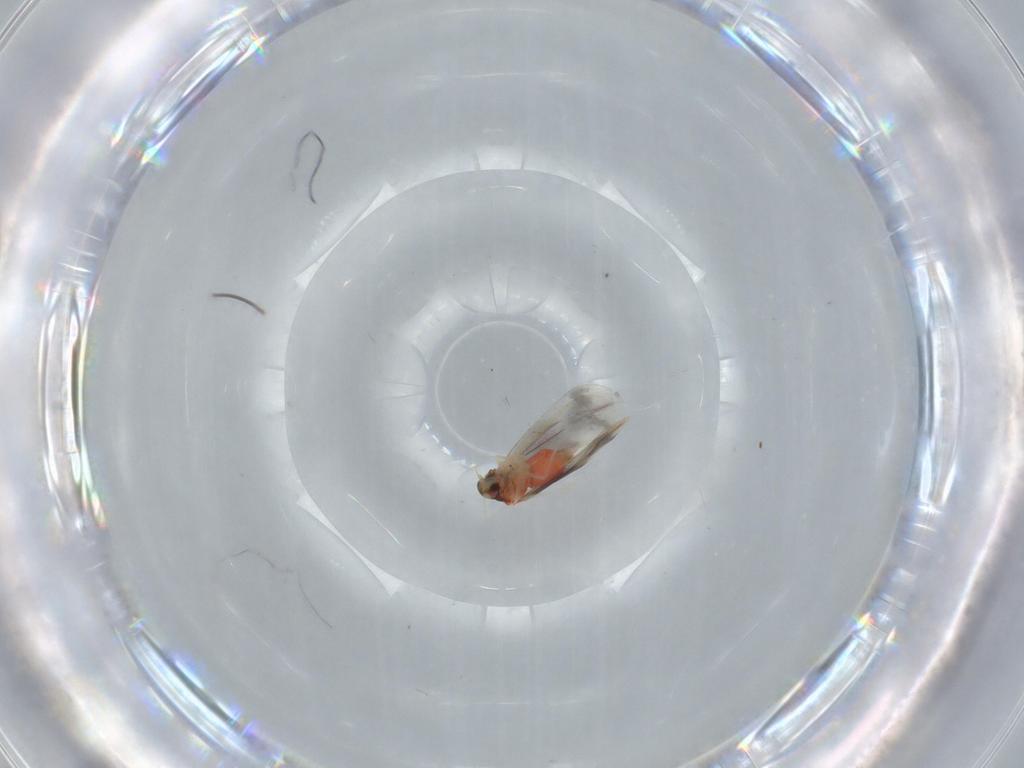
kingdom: Animalia
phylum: Arthropoda
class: Insecta
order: Hemiptera
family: Aleyrodidae
